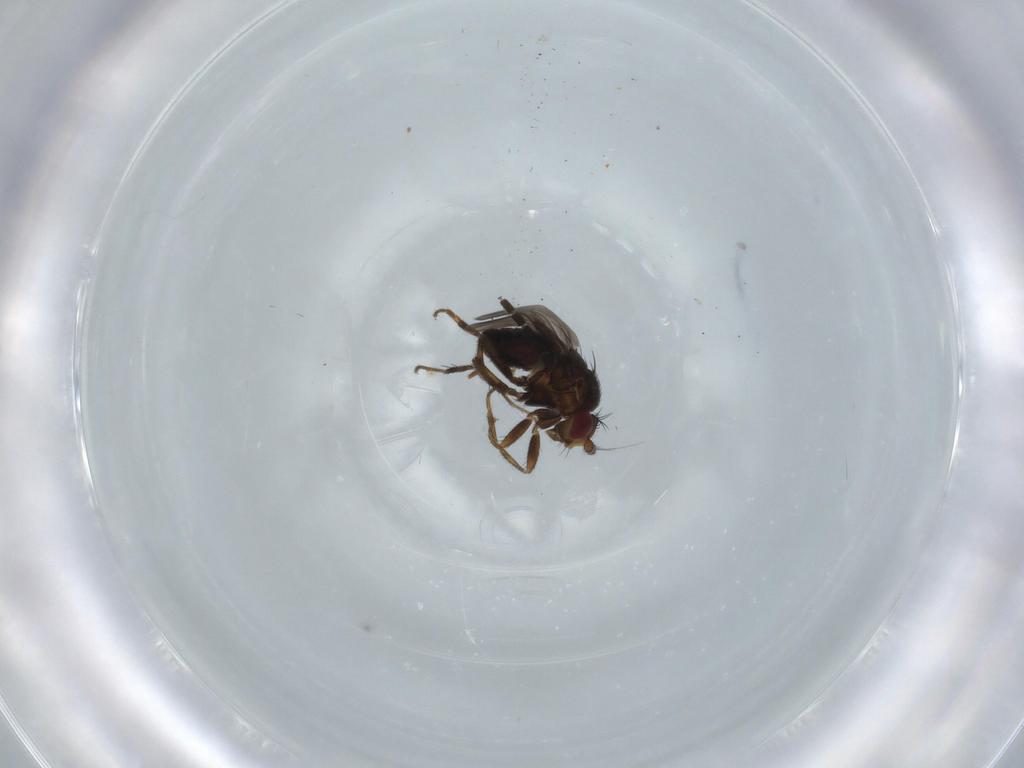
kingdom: Animalia
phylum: Arthropoda
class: Insecta
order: Diptera
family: Sciaridae
